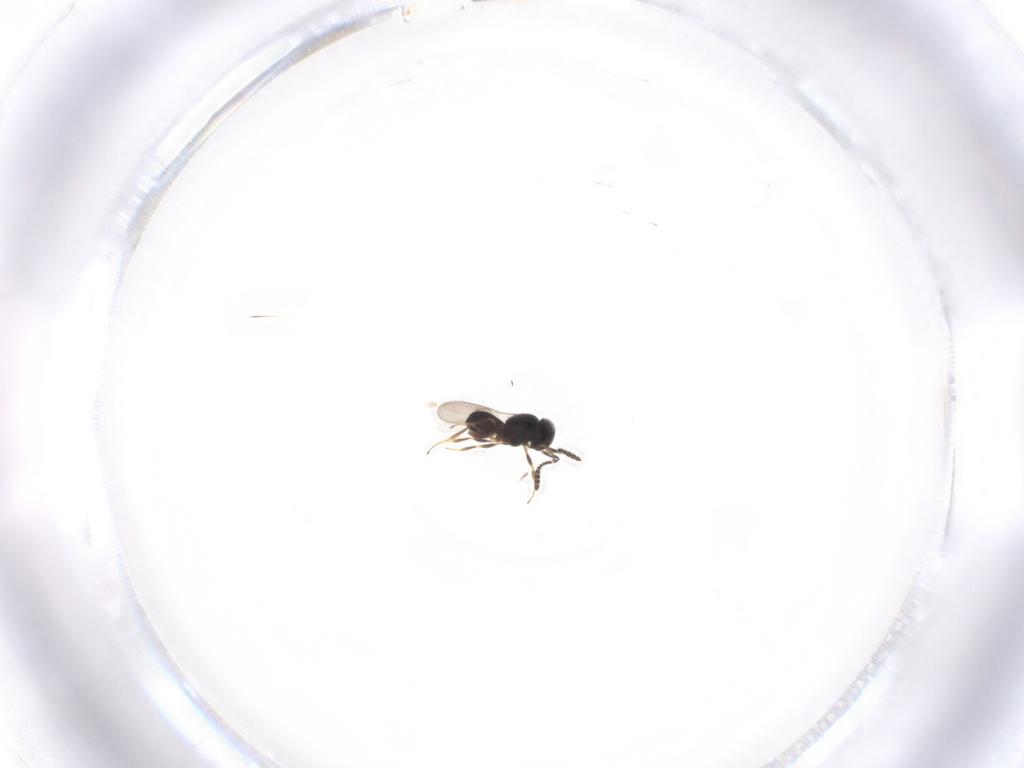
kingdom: Animalia
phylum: Arthropoda
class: Insecta
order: Hymenoptera
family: Scelionidae
